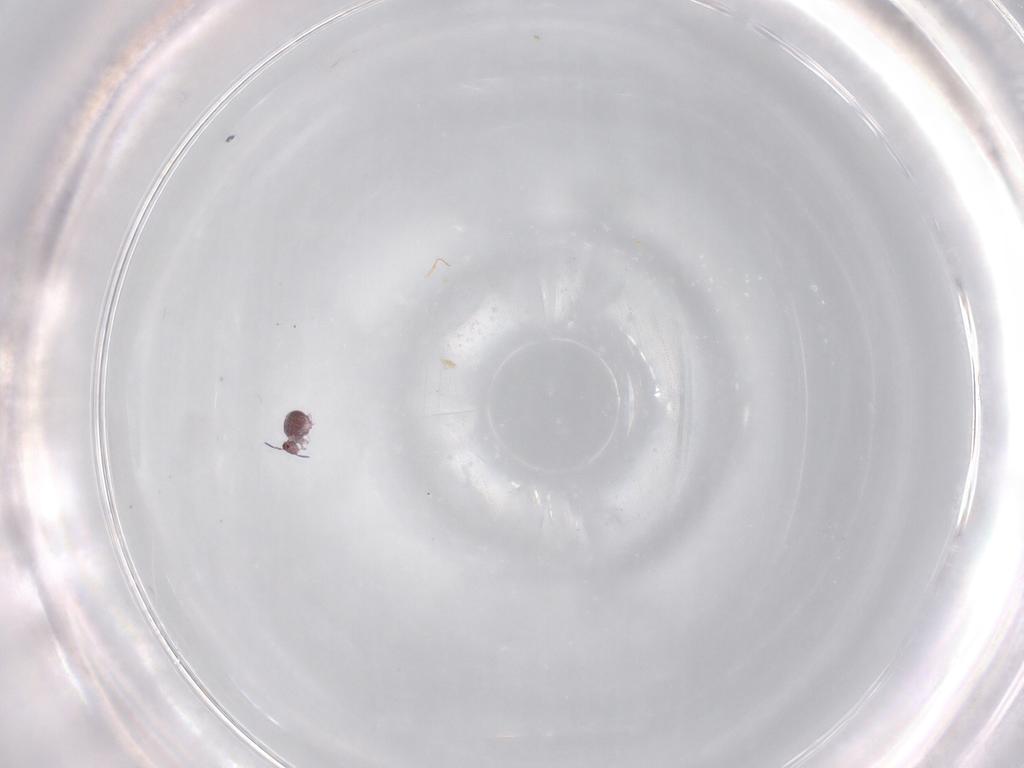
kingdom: Animalia
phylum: Arthropoda
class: Collembola
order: Symphypleona
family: Sminthurididae
